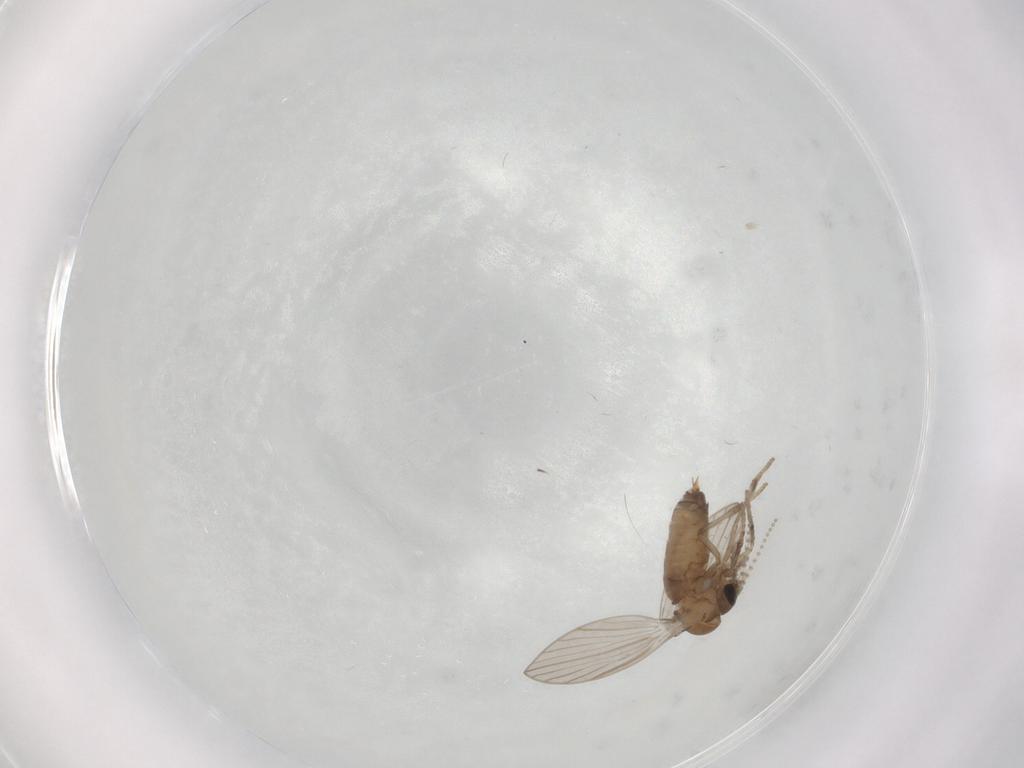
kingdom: Animalia
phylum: Arthropoda
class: Insecta
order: Diptera
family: Psychodidae
